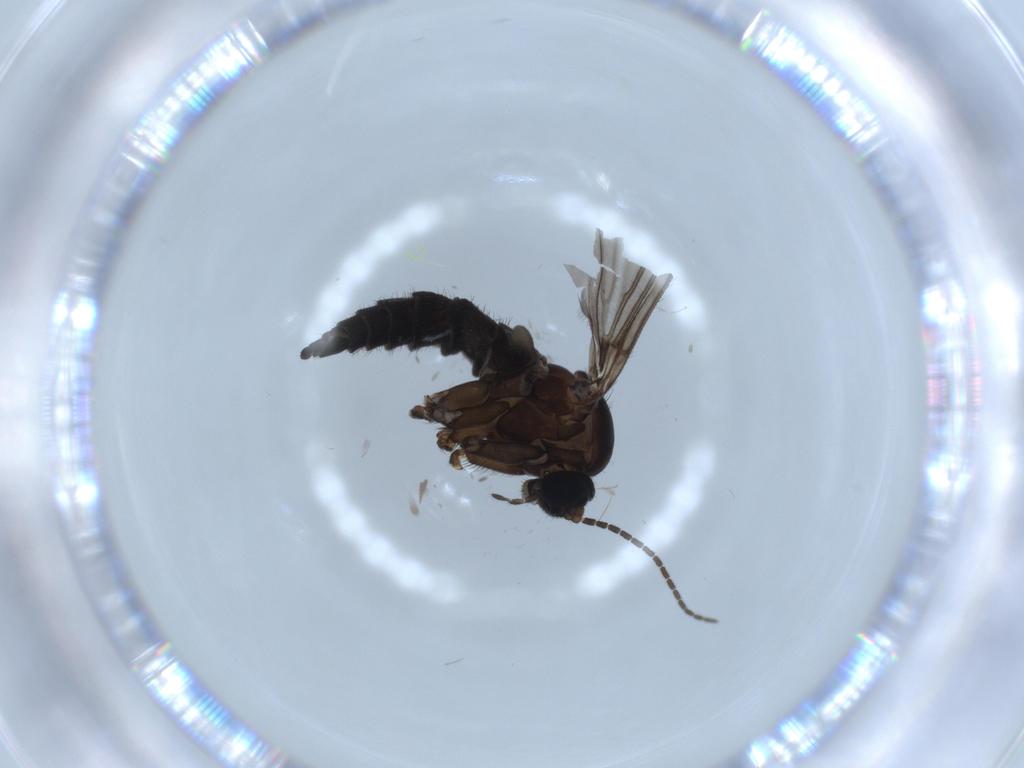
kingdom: Animalia
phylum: Arthropoda
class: Insecta
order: Diptera
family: Sciaridae
